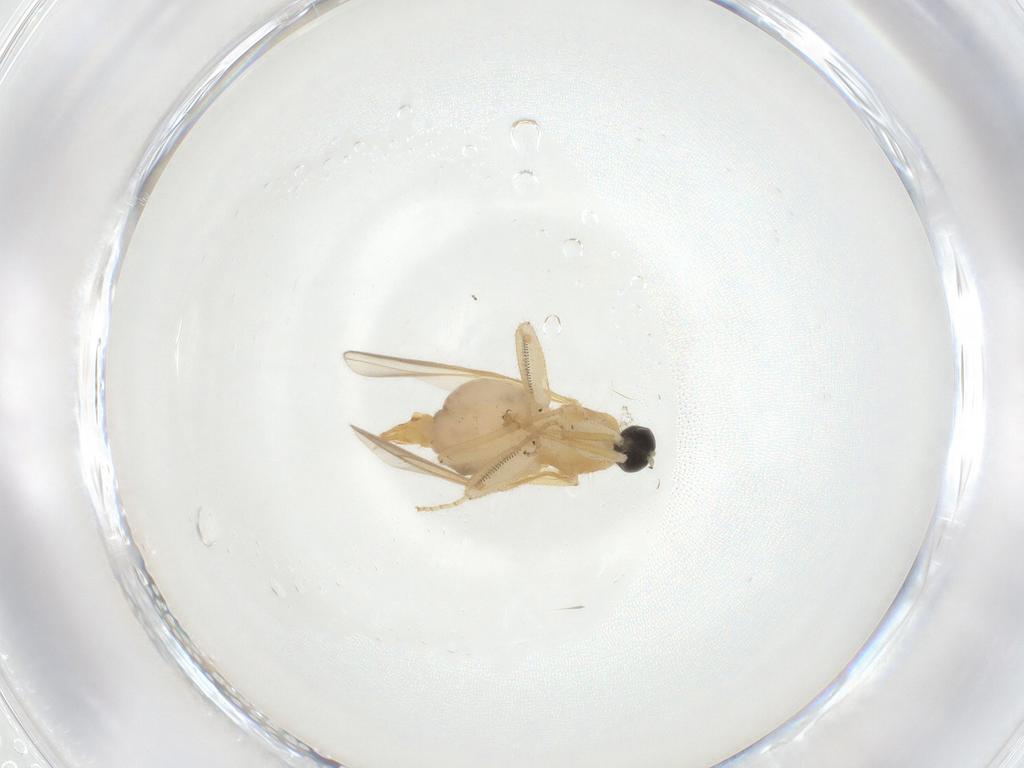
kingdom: Animalia
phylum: Arthropoda
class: Insecta
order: Diptera
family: Hybotidae
